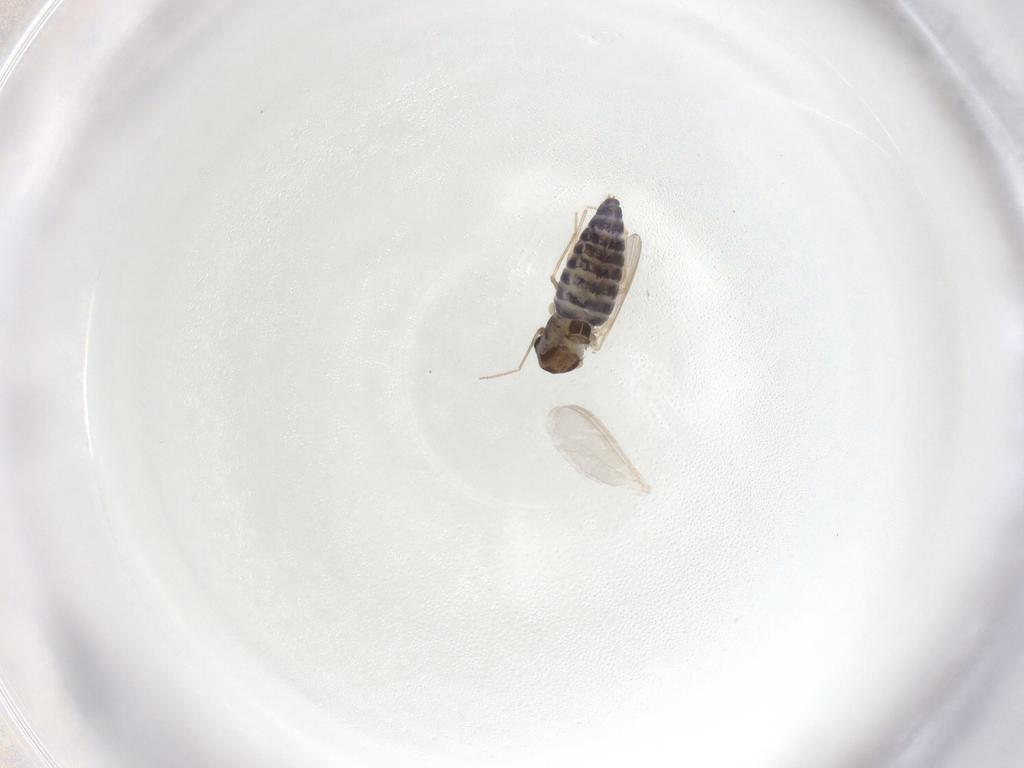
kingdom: Animalia
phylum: Arthropoda
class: Insecta
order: Diptera
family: Chironomidae
